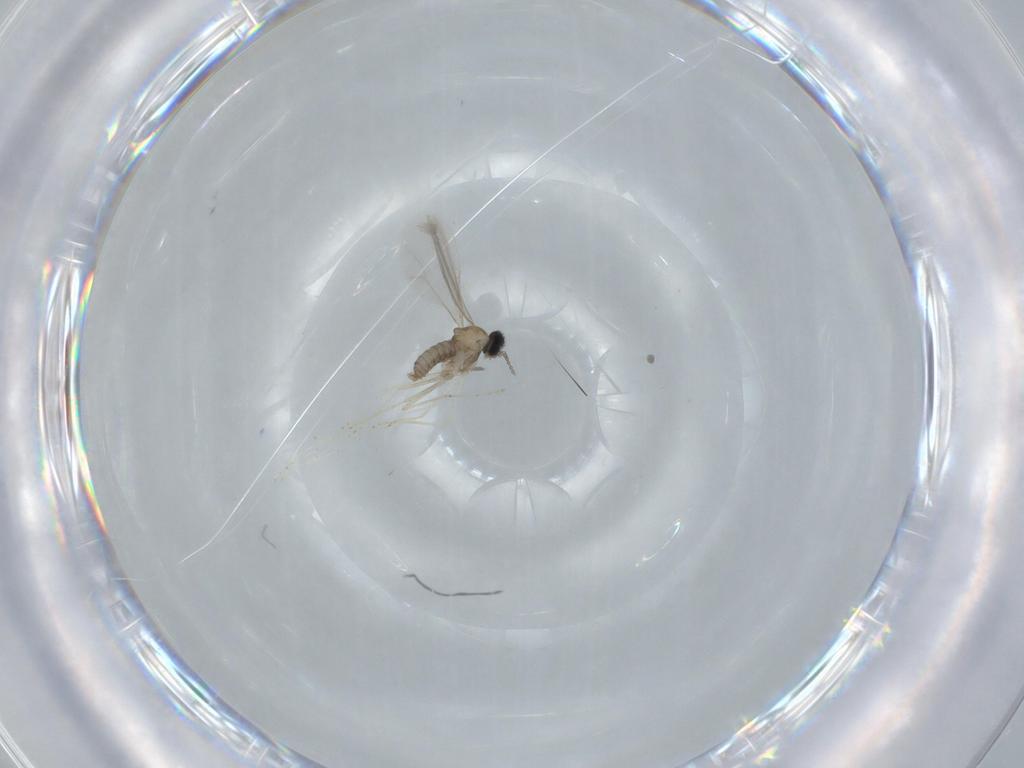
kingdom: Animalia
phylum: Arthropoda
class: Insecta
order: Diptera
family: Cecidomyiidae
